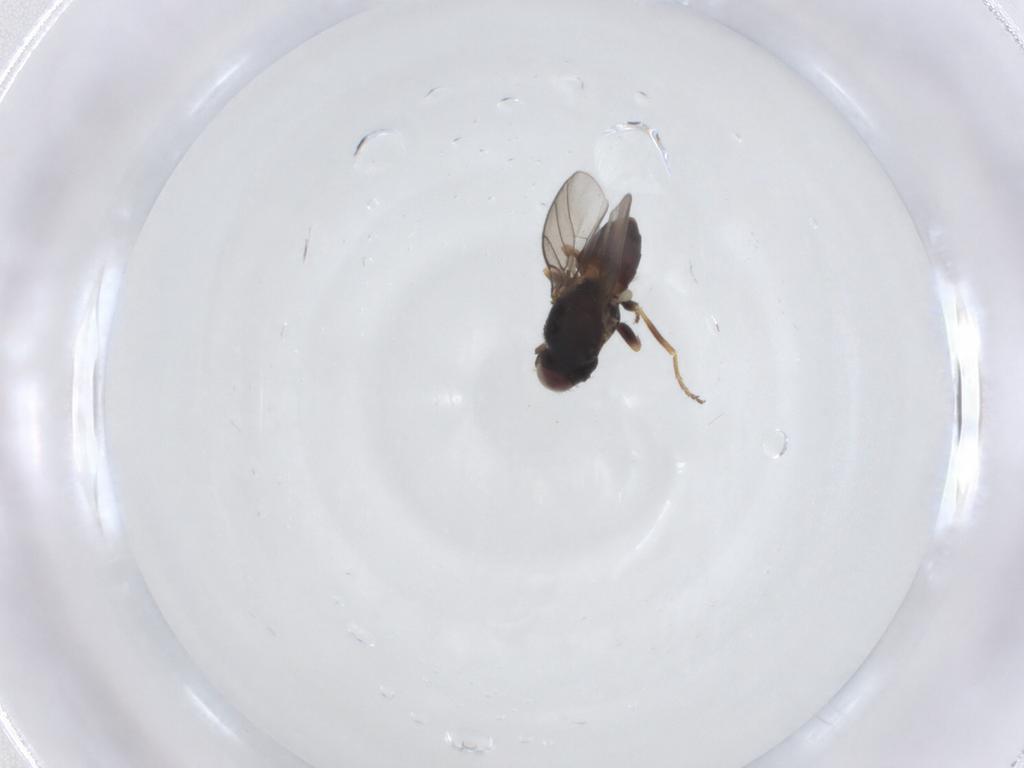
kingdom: Animalia
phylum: Arthropoda
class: Insecta
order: Diptera
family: Chloropidae
